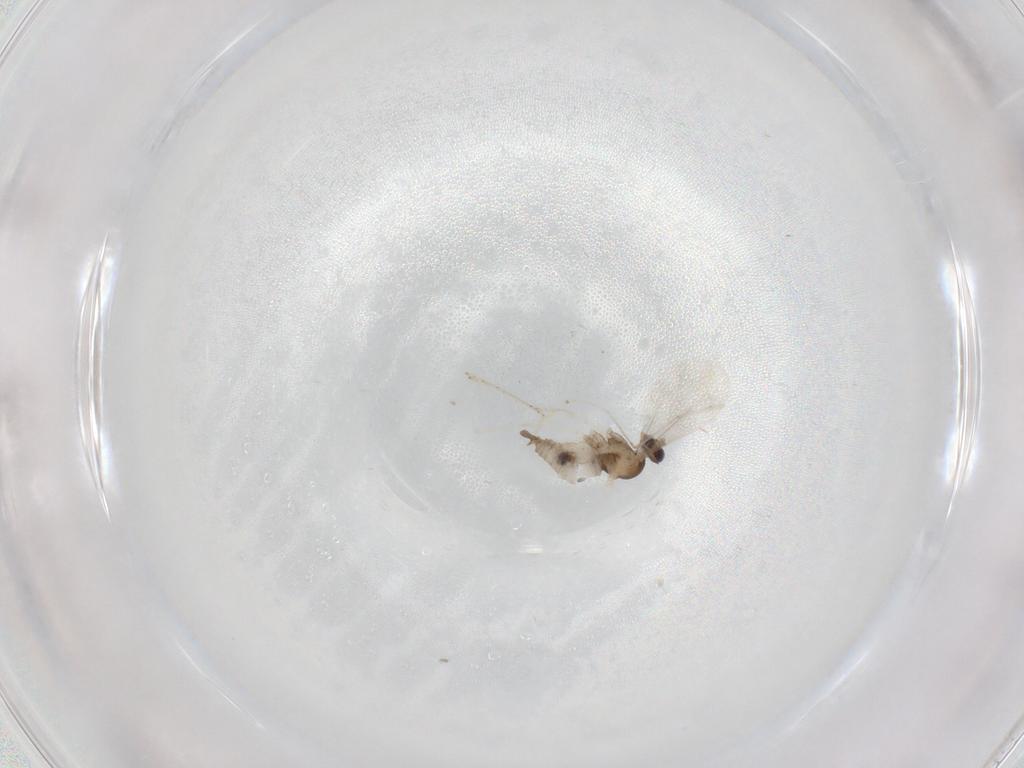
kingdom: Animalia
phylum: Arthropoda
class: Insecta
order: Diptera
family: Cecidomyiidae
